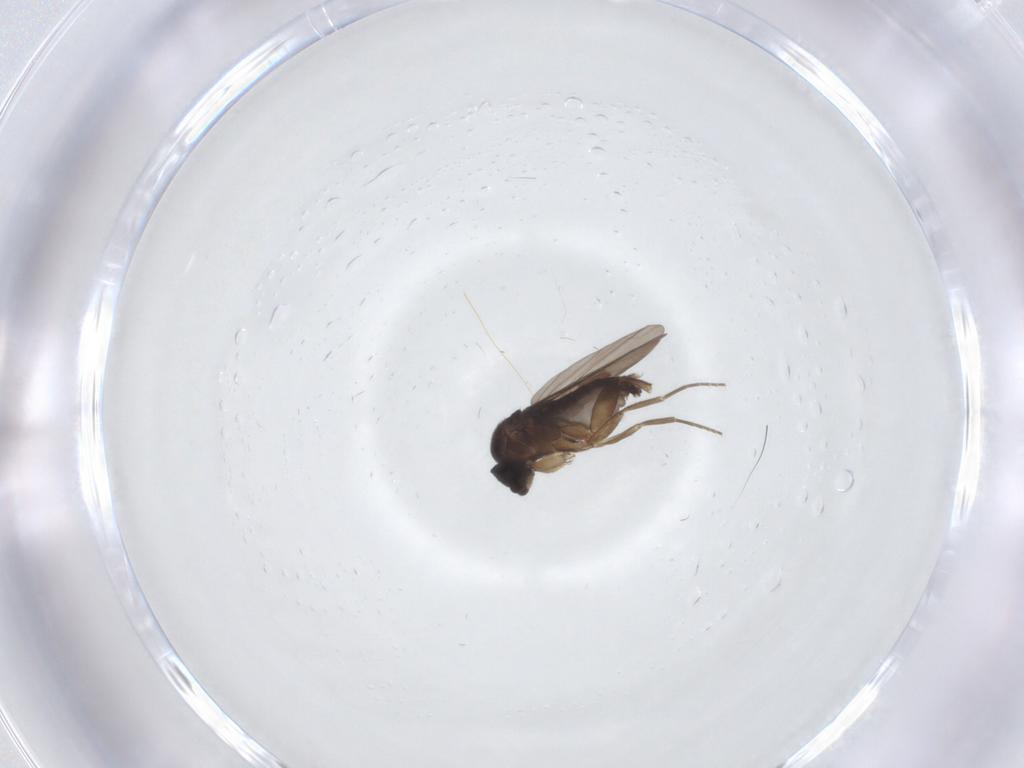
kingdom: Animalia
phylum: Arthropoda
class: Insecta
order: Diptera
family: Phoridae
